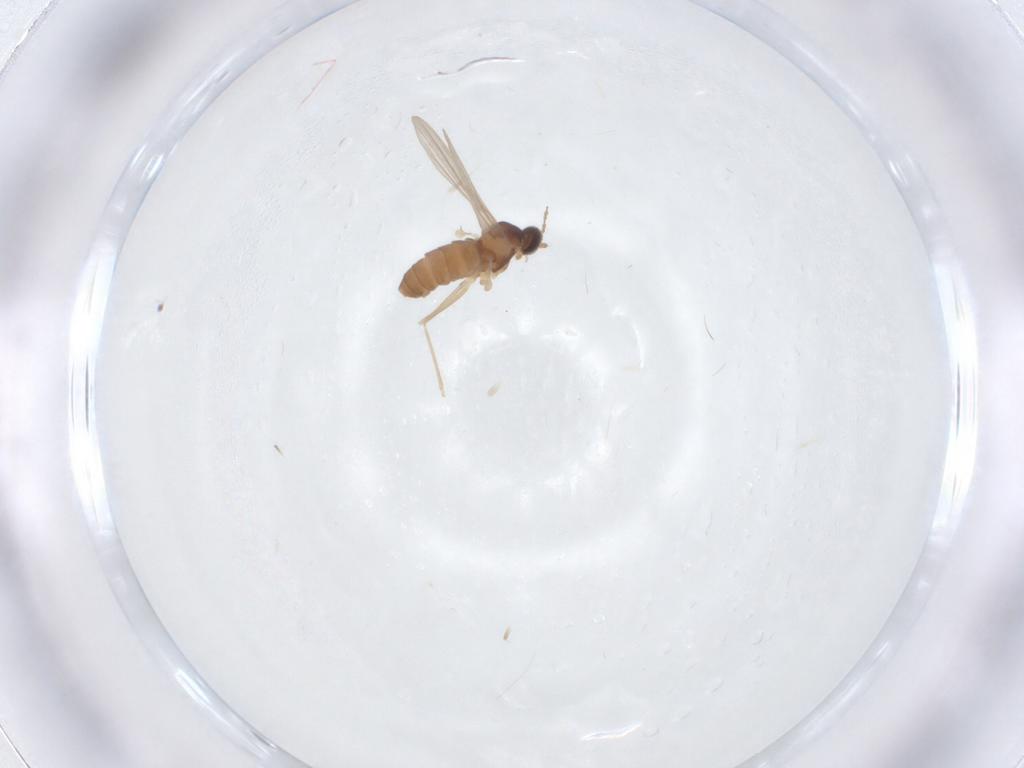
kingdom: Animalia
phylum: Arthropoda
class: Insecta
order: Diptera
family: Cecidomyiidae
